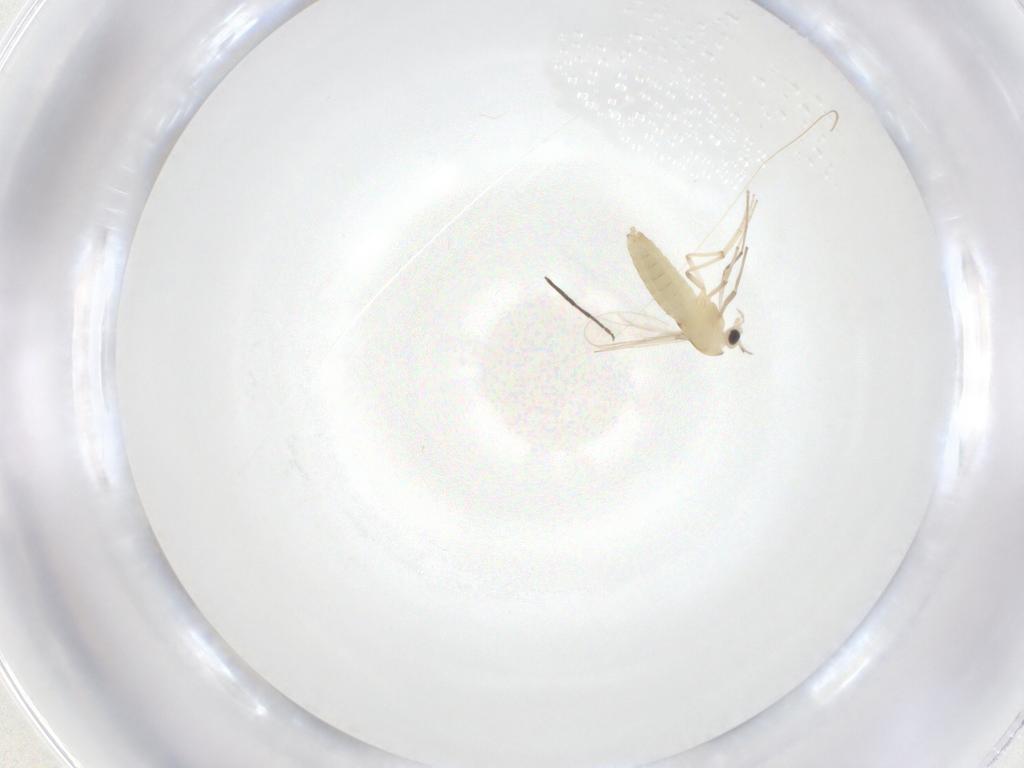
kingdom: Animalia
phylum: Arthropoda
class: Insecta
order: Diptera
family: Chironomidae
